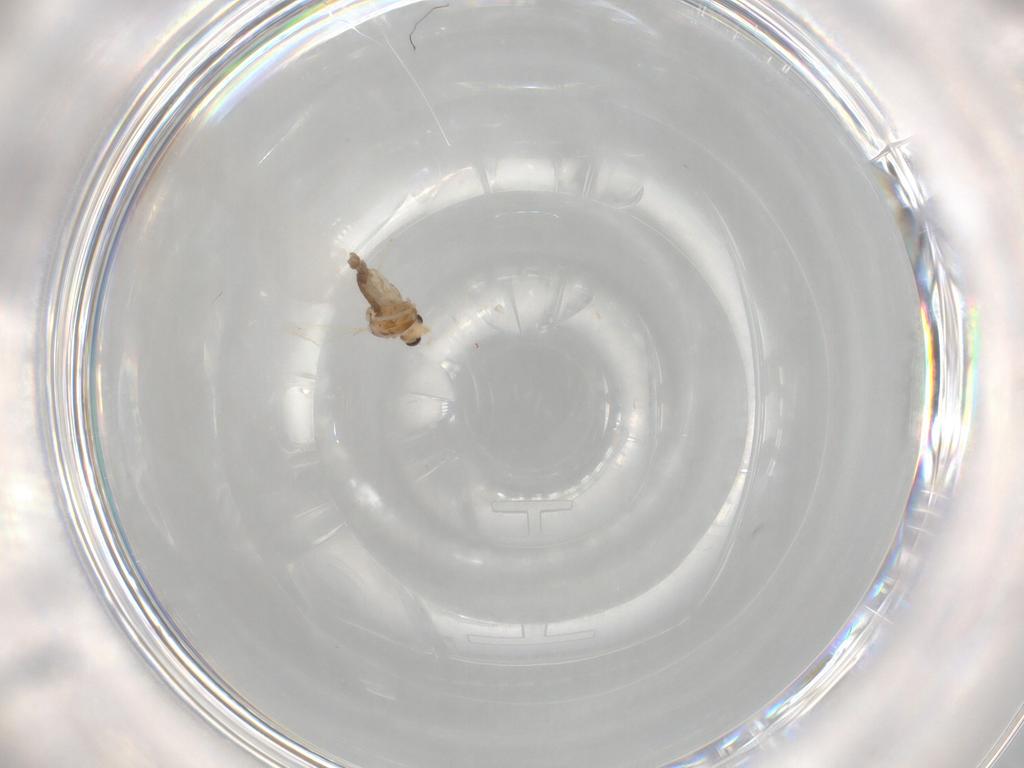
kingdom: Animalia
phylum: Arthropoda
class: Insecta
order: Diptera
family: Chironomidae
